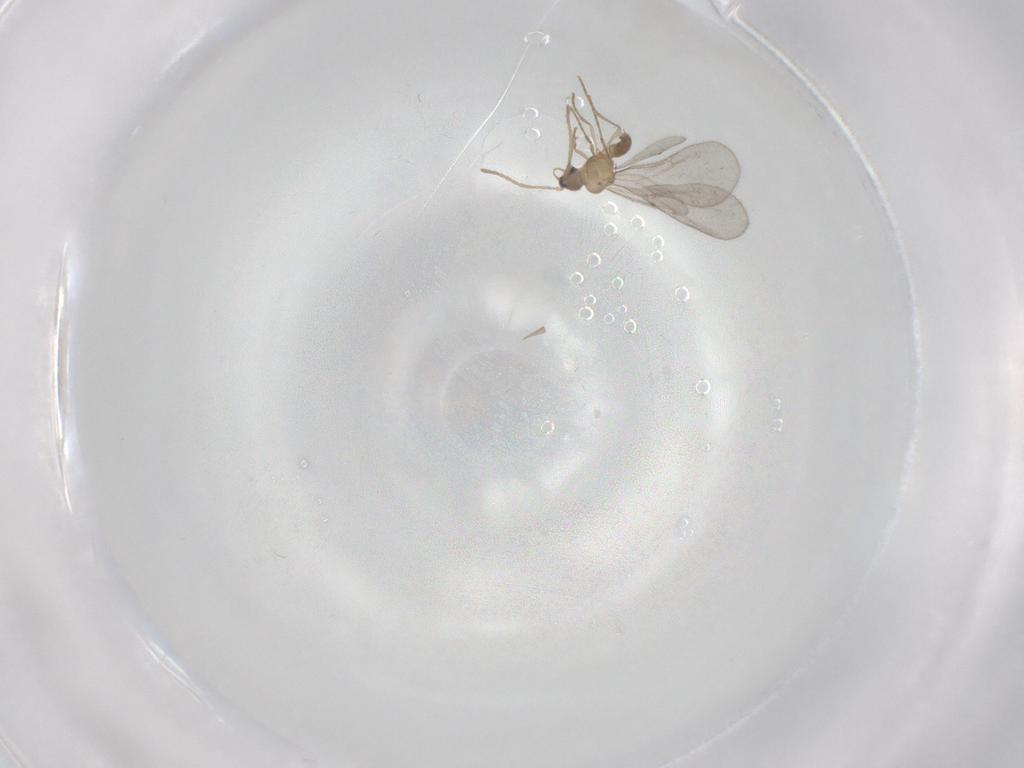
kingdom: Animalia
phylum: Arthropoda
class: Insecta
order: Hymenoptera
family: Formicidae
